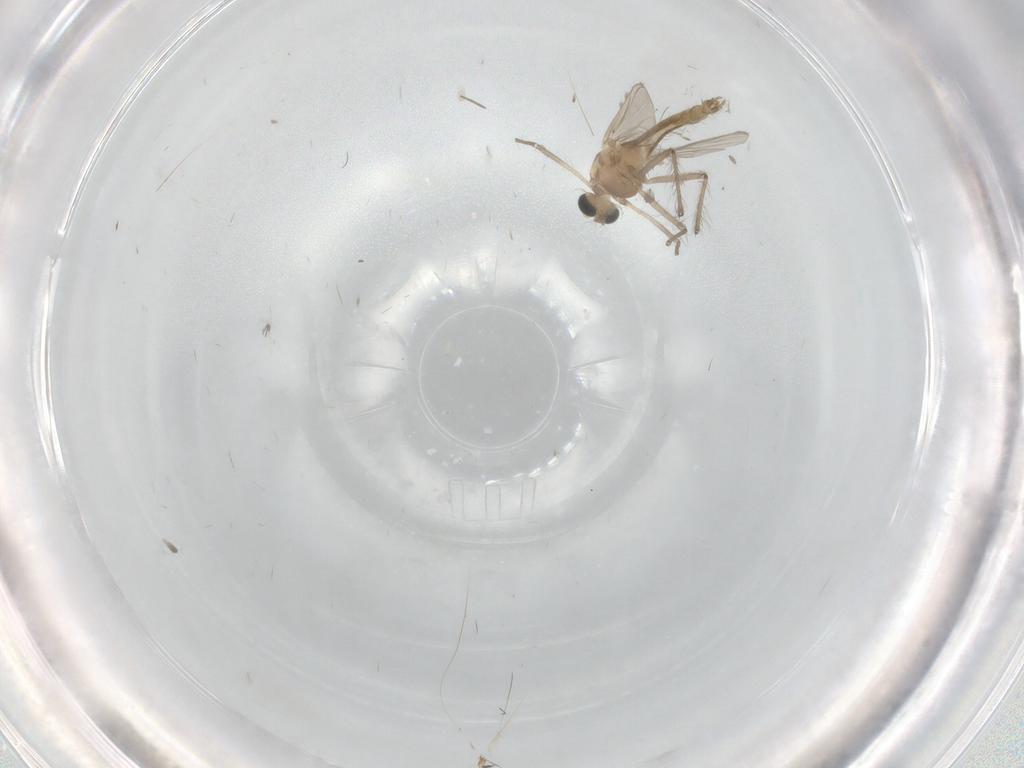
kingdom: Animalia
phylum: Arthropoda
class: Insecta
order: Diptera
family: Chironomidae
